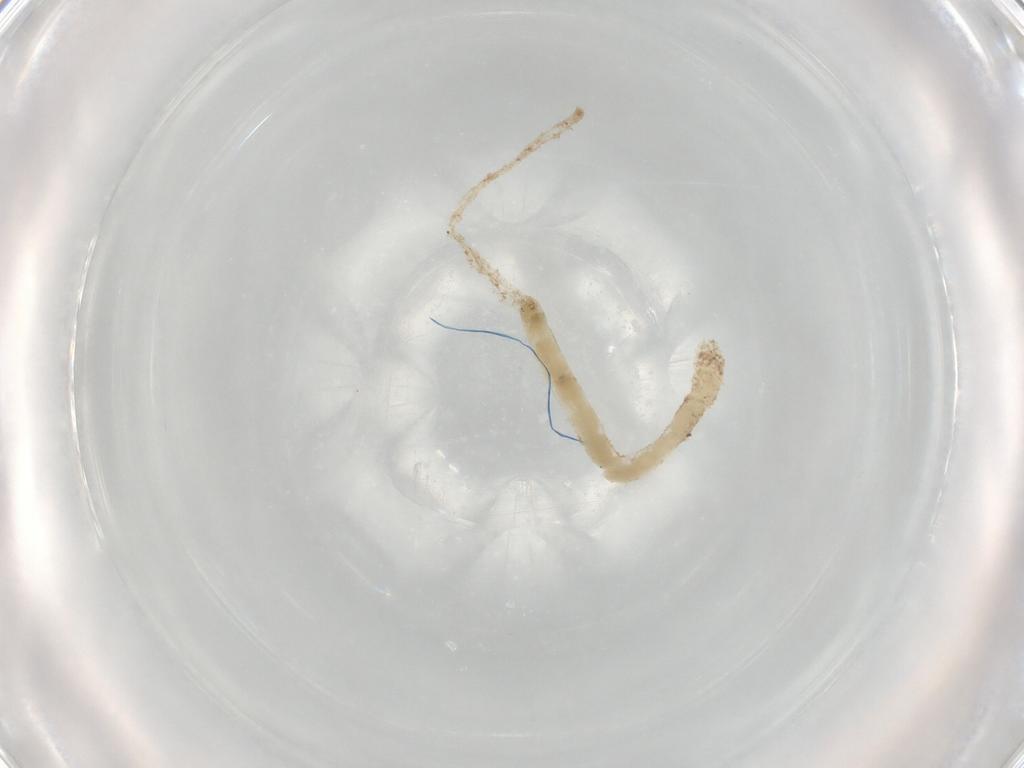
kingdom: Animalia
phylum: Arthropoda
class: Insecta
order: Diptera
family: Chironomidae
